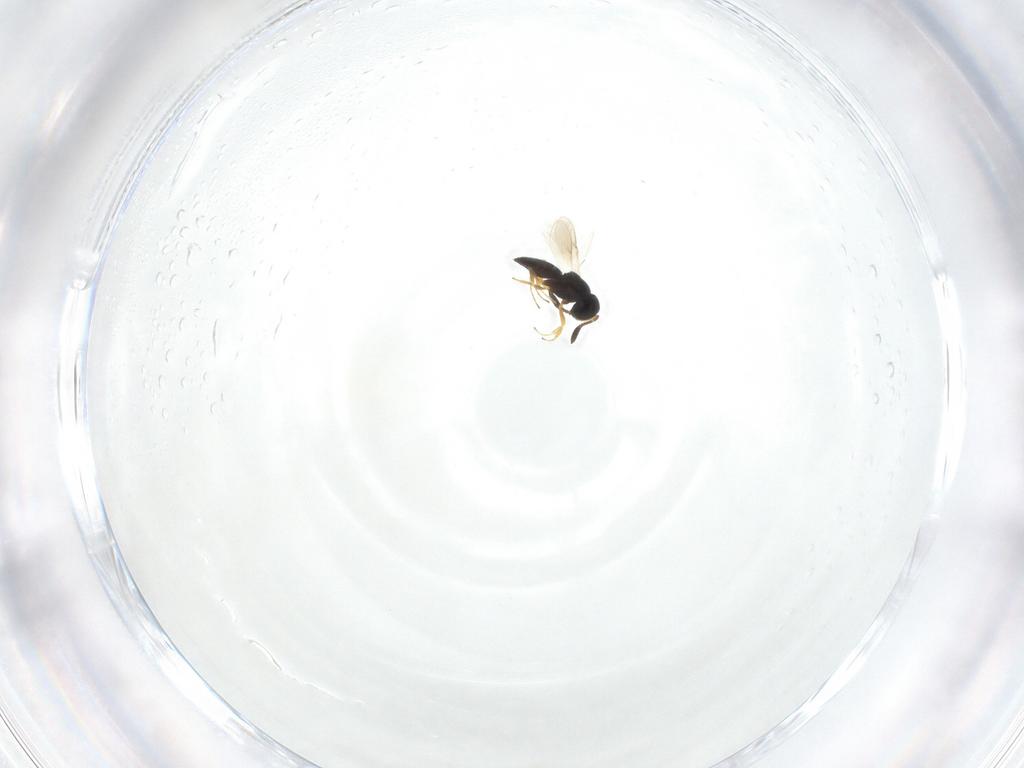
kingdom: Animalia
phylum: Arthropoda
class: Insecta
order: Hymenoptera
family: Scelionidae
